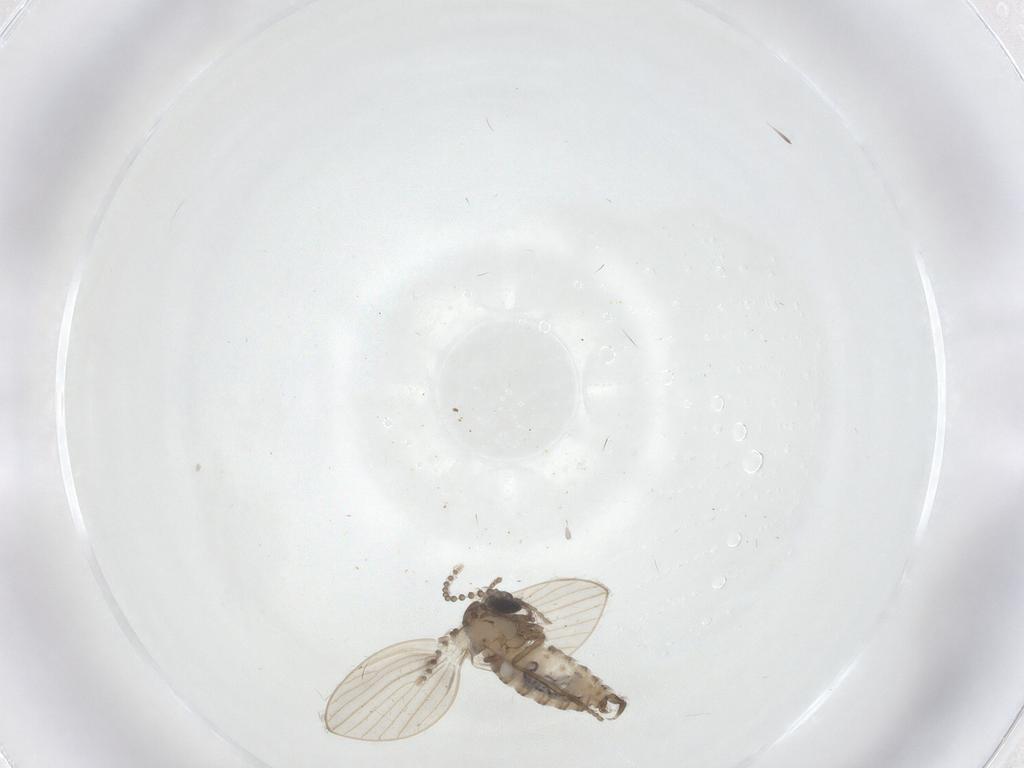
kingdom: Animalia
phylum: Arthropoda
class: Insecta
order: Diptera
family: Psychodidae
